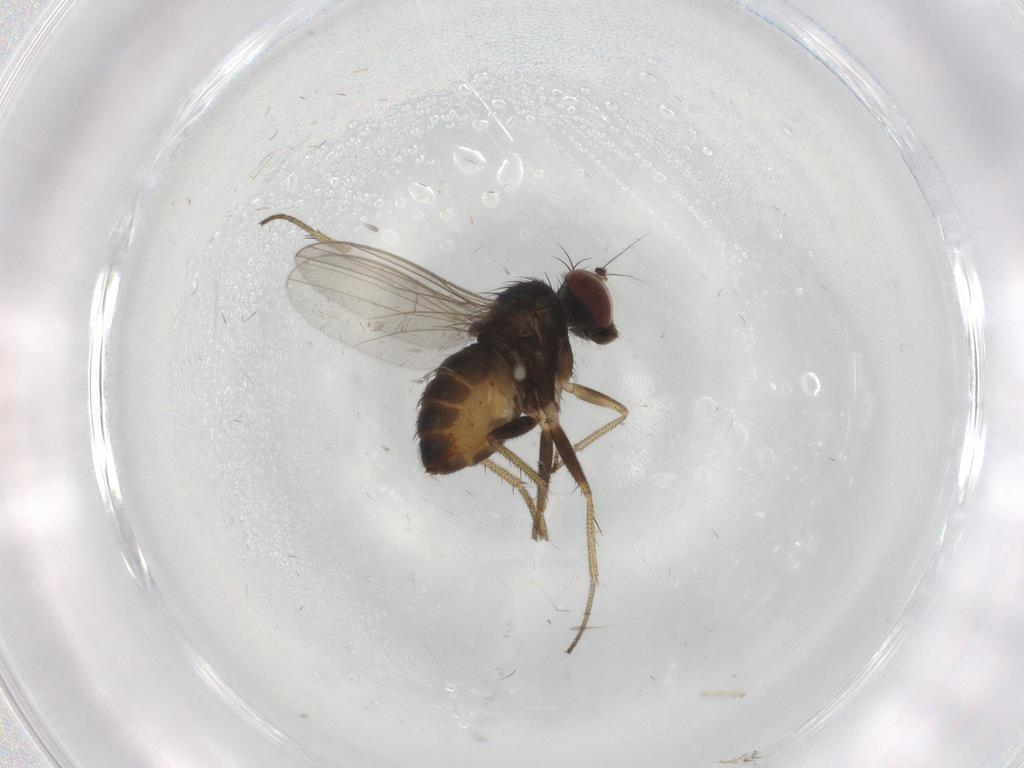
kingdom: Animalia
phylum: Arthropoda
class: Insecta
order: Diptera
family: Dolichopodidae
